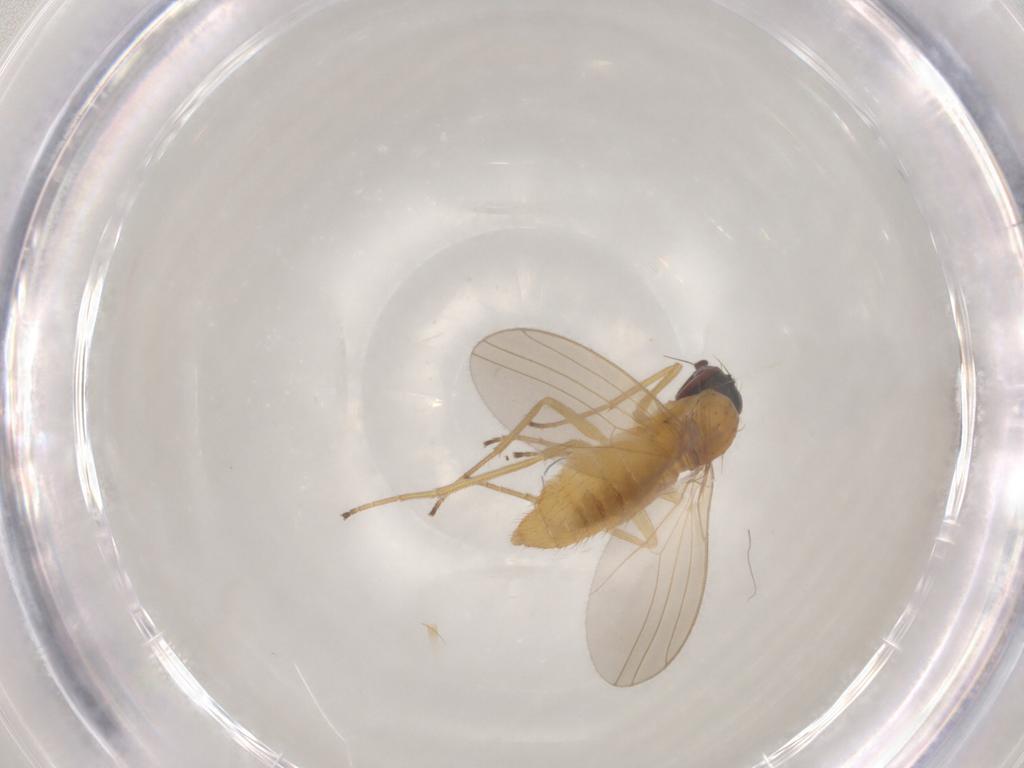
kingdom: Animalia
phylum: Arthropoda
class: Insecta
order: Diptera
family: Dolichopodidae
